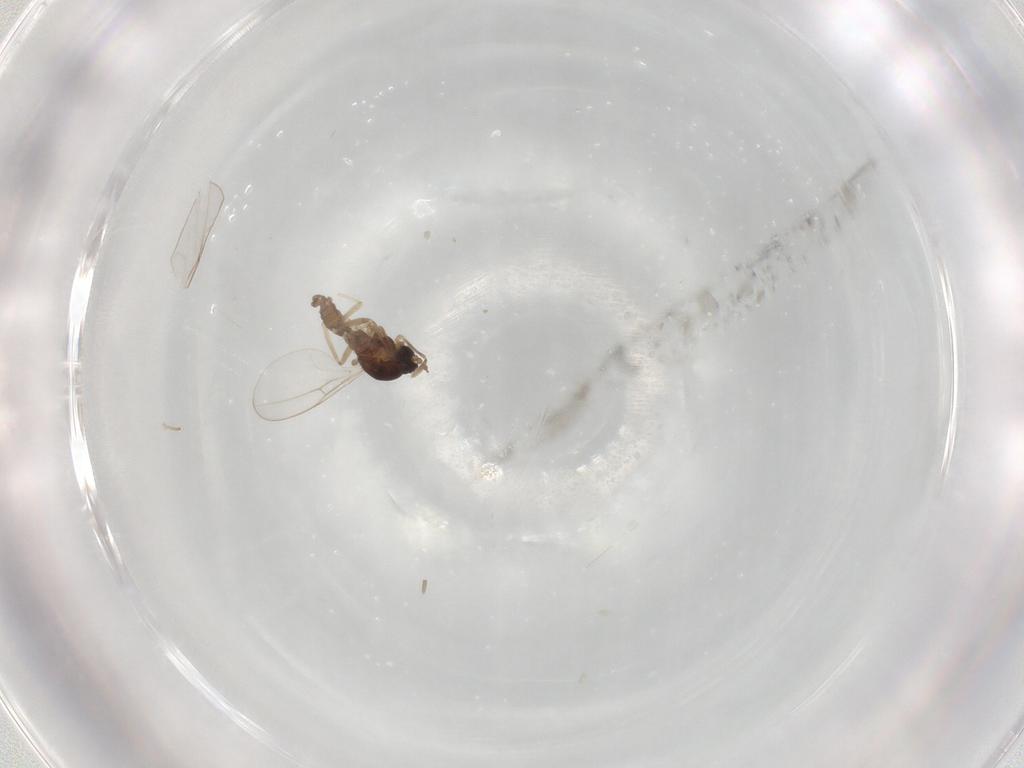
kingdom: Animalia
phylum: Arthropoda
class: Insecta
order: Diptera
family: Cecidomyiidae
